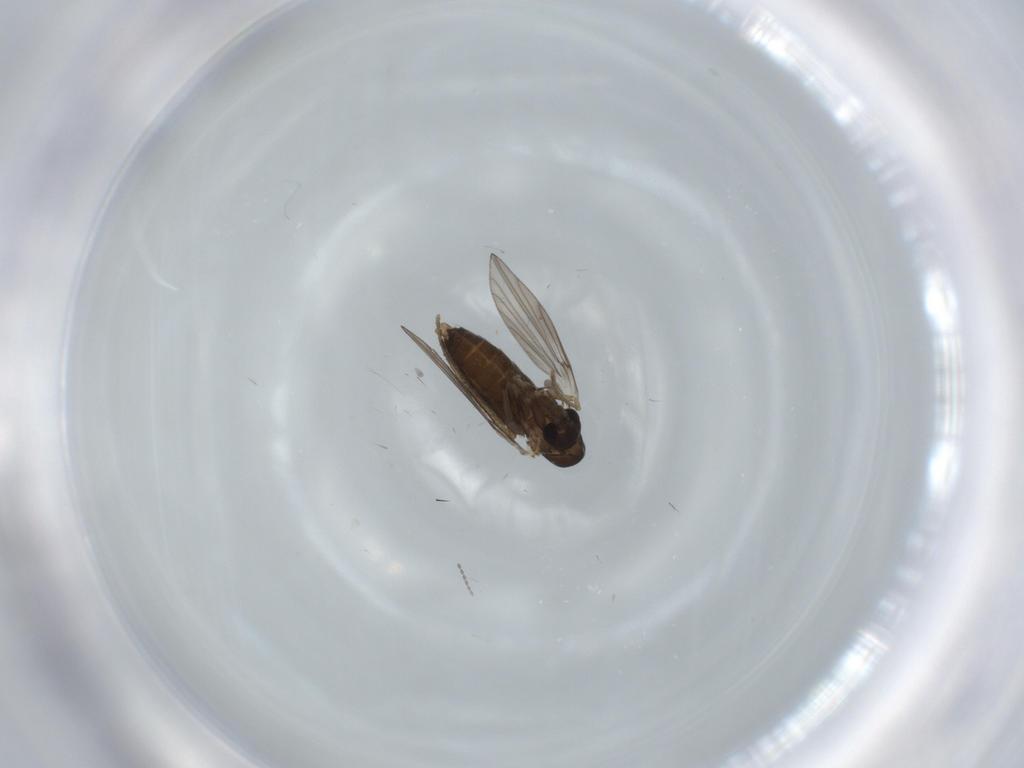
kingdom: Animalia
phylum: Arthropoda
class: Insecta
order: Diptera
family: Cecidomyiidae
